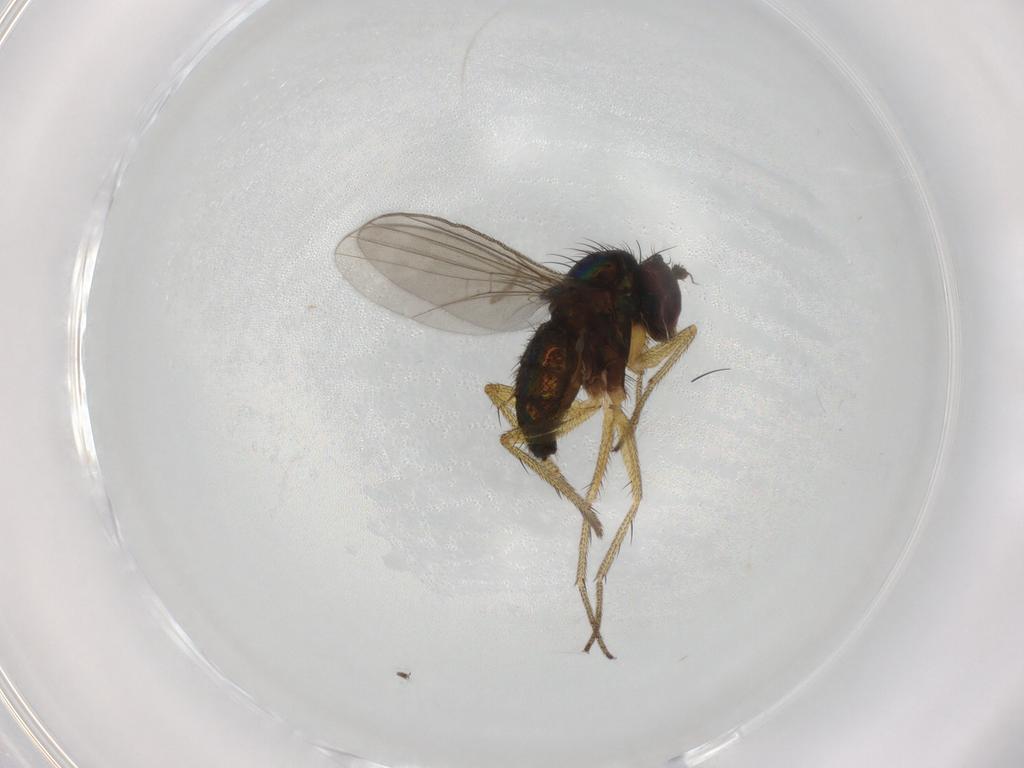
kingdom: Animalia
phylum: Arthropoda
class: Insecta
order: Diptera
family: Dolichopodidae
